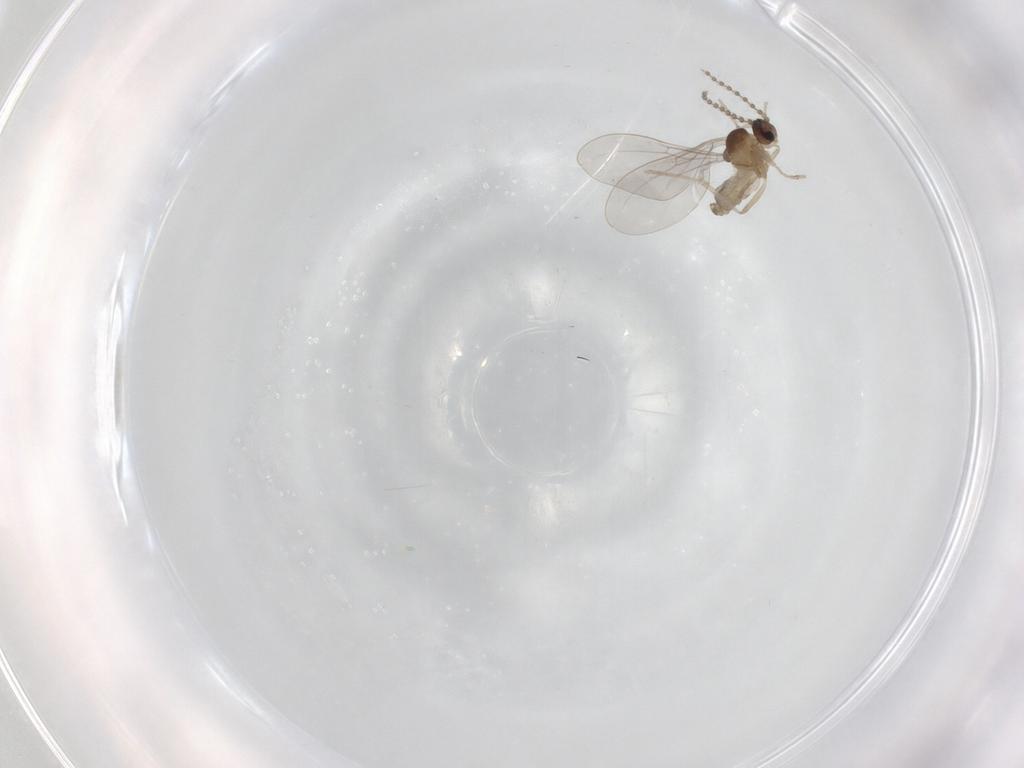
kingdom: Animalia
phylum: Arthropoda
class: Insecta
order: Diptera
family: Cecidomyiidae
